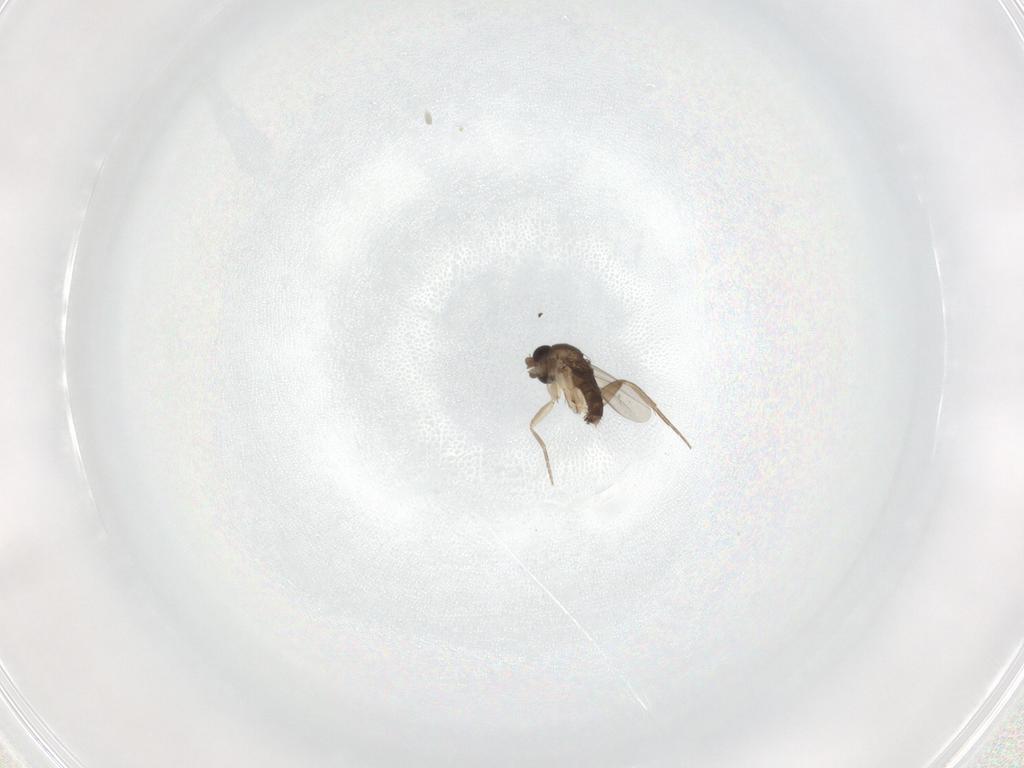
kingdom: Animalia
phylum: Arthropoda
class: Insecta
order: Diptera
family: Phoridae
